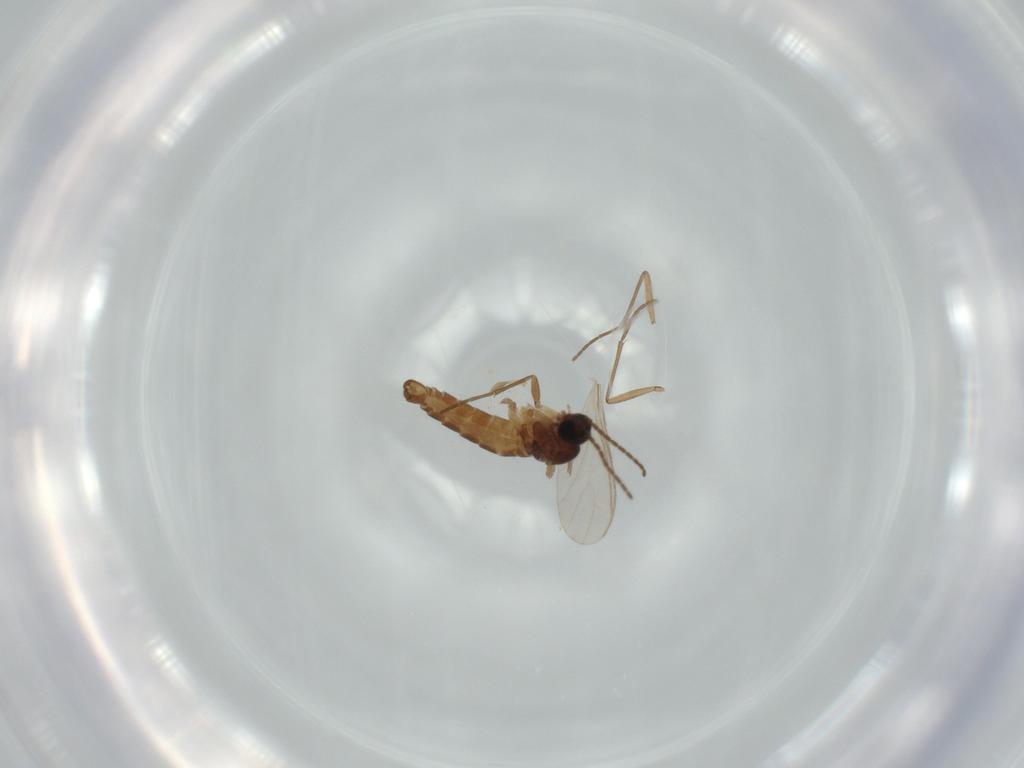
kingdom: Animalia
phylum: Arthropoda
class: Insecta
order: Diptera
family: Sciaridae
